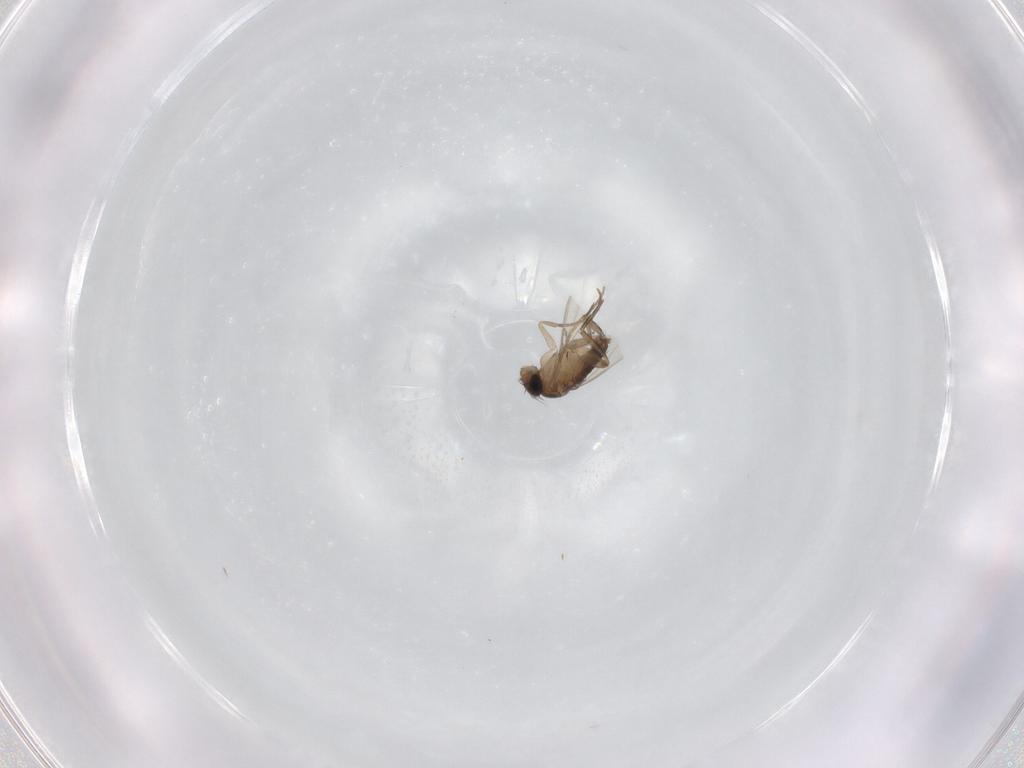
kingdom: Animalia
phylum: Arthropoda
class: Insecta
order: Diptera
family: Phoridae
